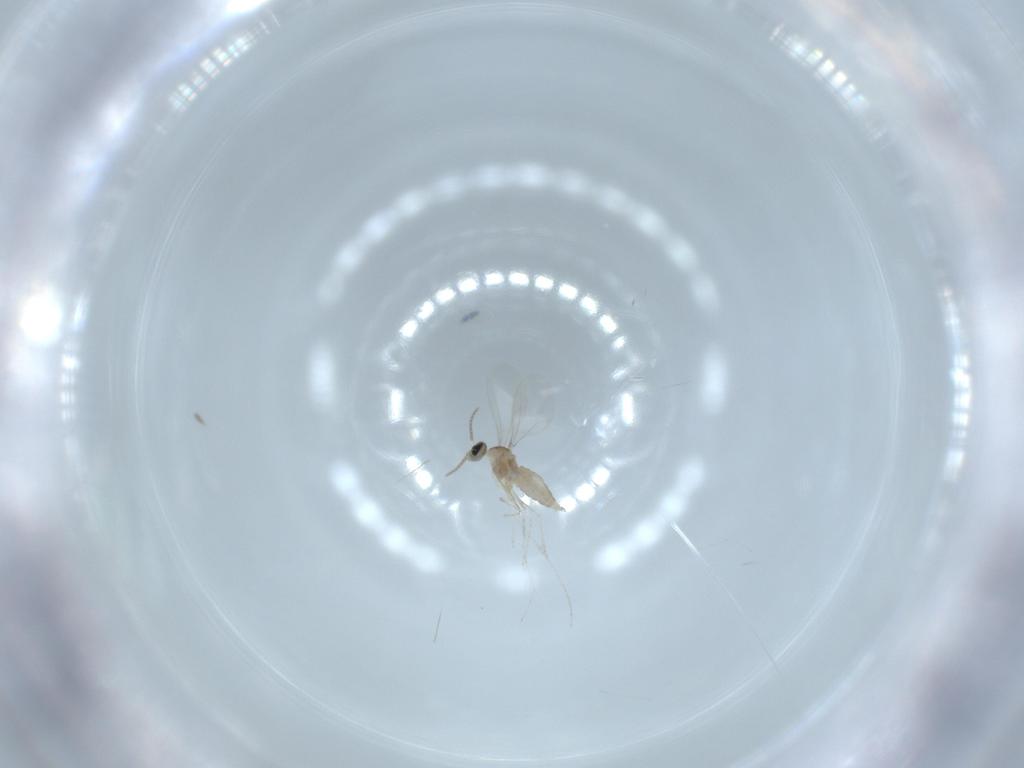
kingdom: Animalia
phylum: Arthropoda
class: Insecta
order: Diptera
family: Cecidomyiidae
